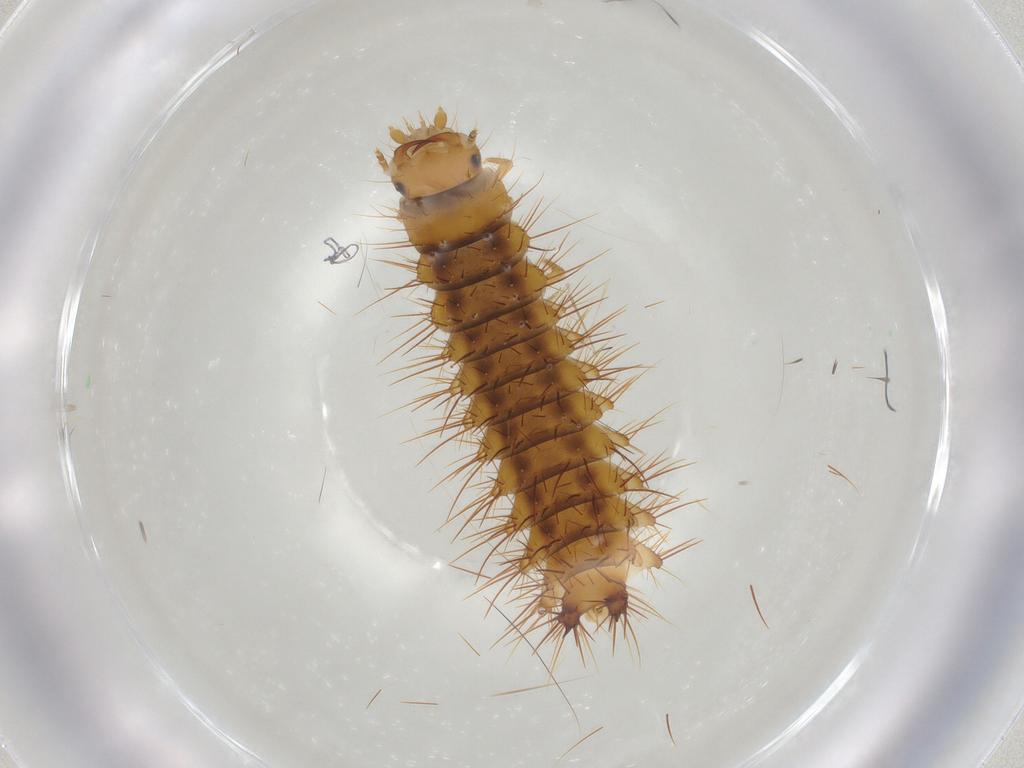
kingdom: Animalia
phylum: Arthropoda
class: Insecta
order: Coleoptera
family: Elateridae
